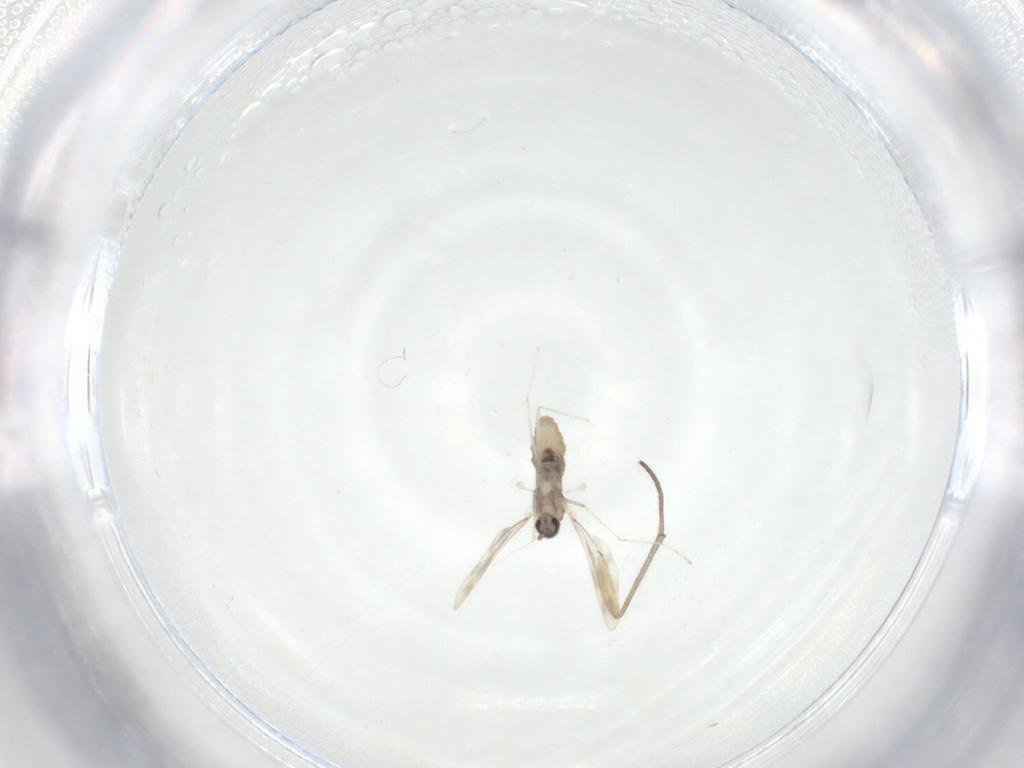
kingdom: Animalia
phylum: Arthropoda
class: Insecta
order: Diptera
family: Cecidomyiidae
